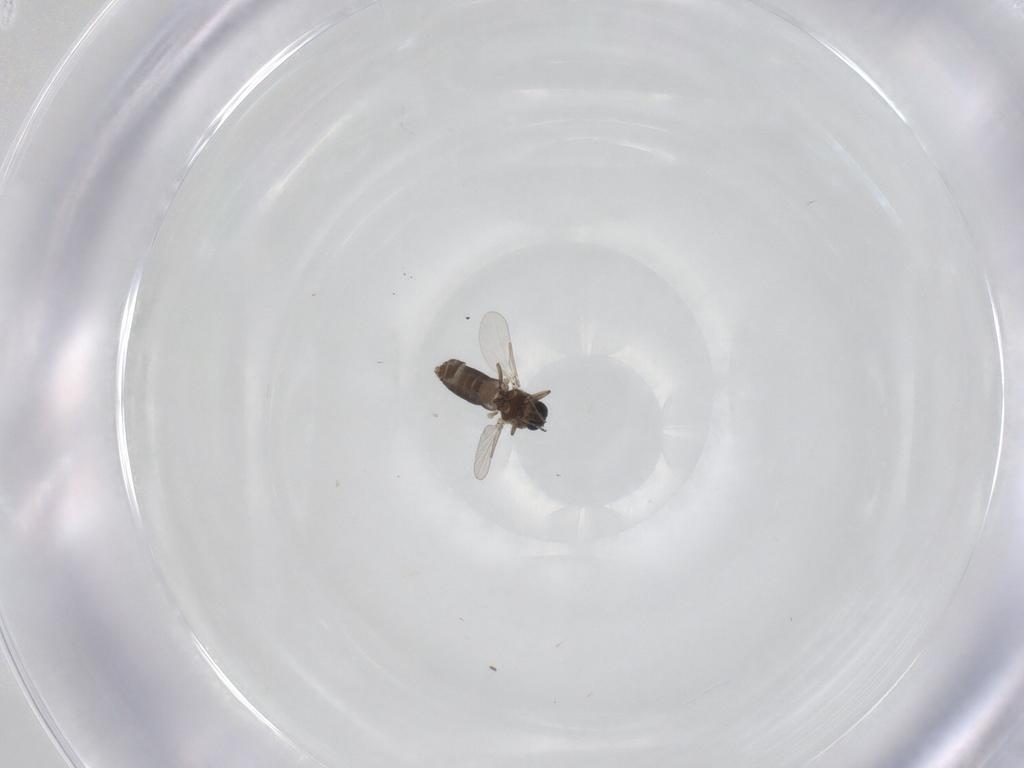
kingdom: Animalia
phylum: Arthropoda
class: Insecta
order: Diptera
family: Ceratopogonidae
